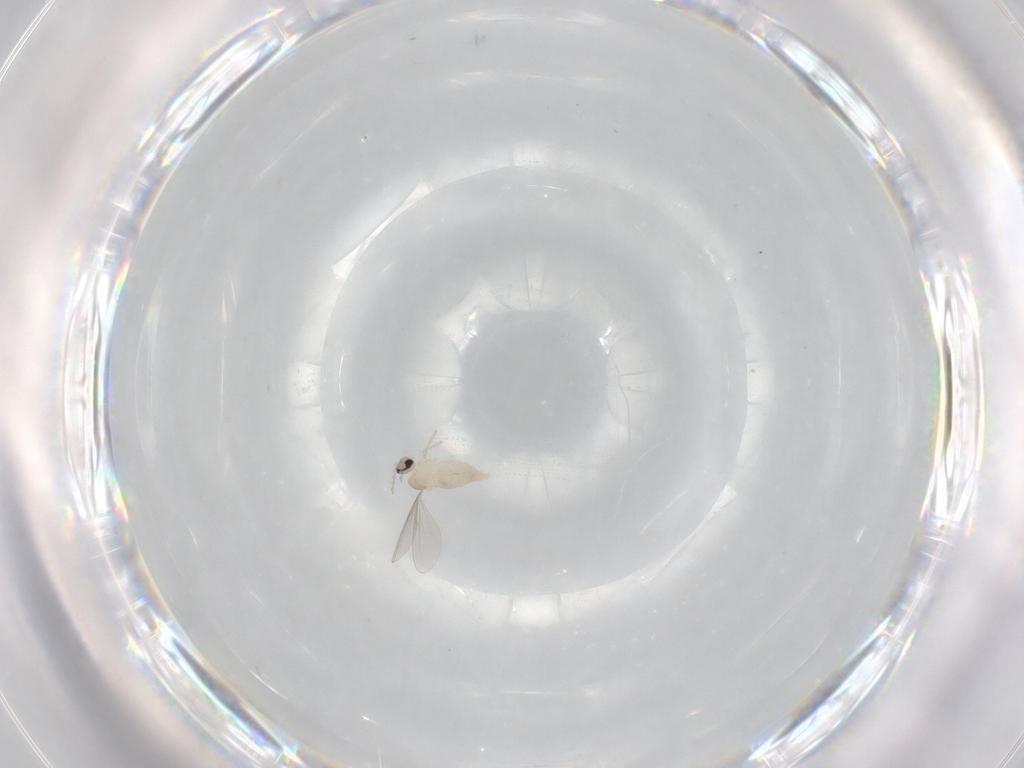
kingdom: Animalia
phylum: Arthropoda
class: Insecta
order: Diptera
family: Cecidomyiidae
